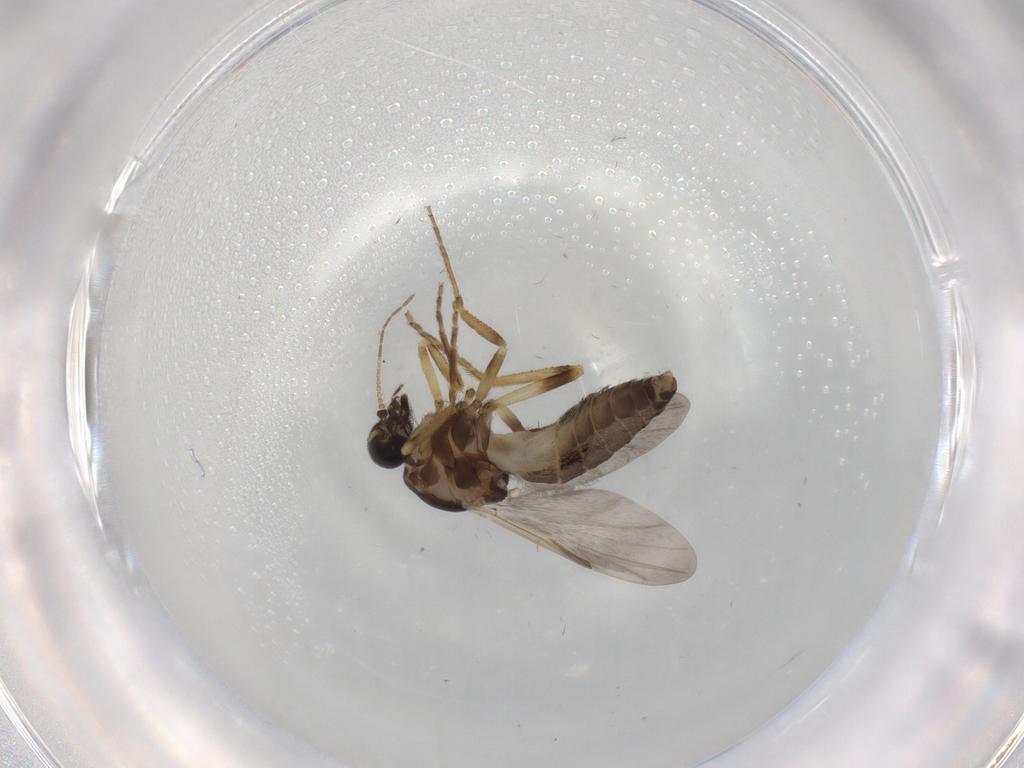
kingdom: Animalia
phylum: Arthropoda
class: Insecta
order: Diptera
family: Ceratopogonidae
